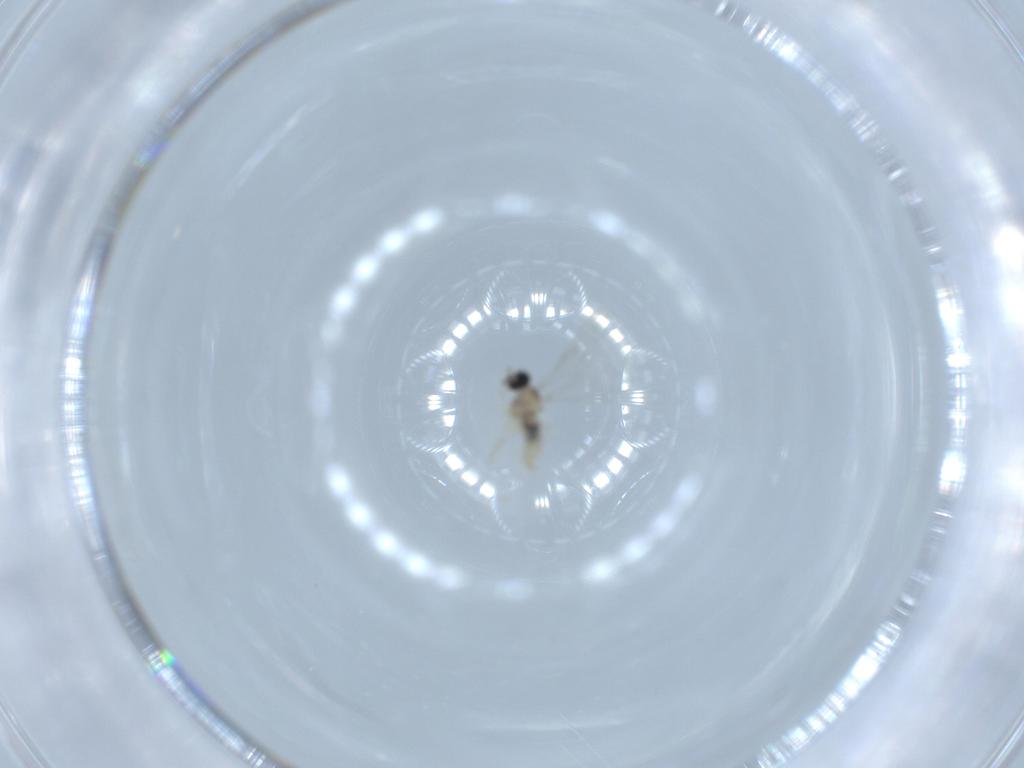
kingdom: Animalia
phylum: Arthropoda
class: Insecta
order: Diptera
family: Cecidomyiidae
